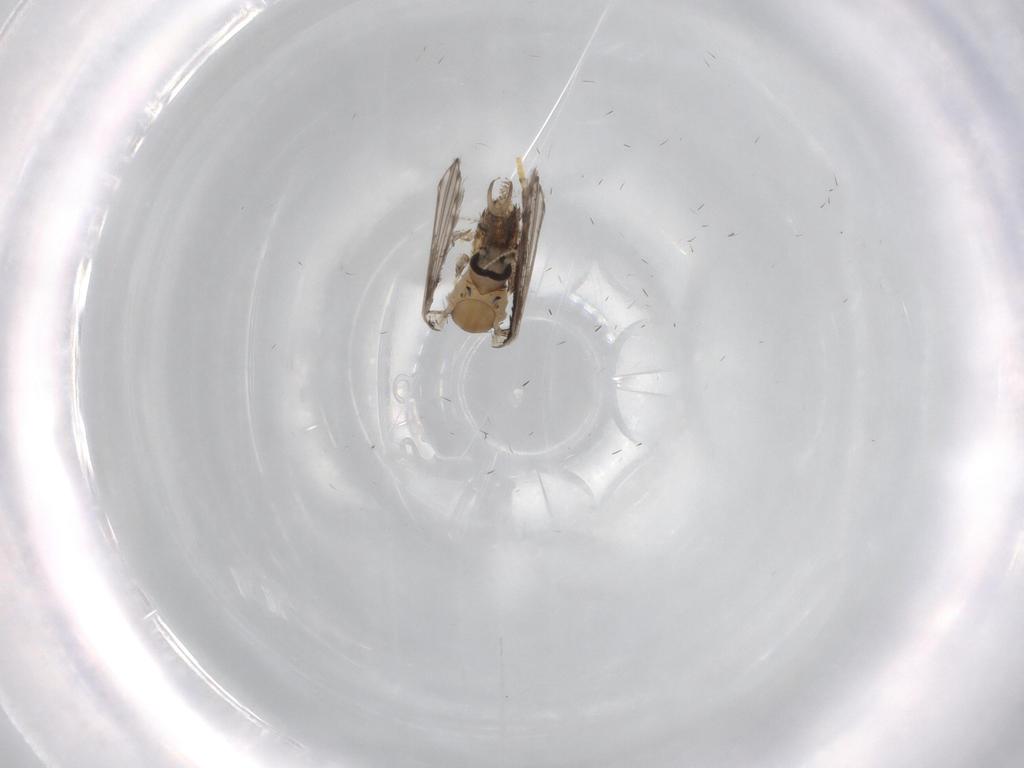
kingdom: Animalia
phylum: Arthropoda
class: Insecta
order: Diptera
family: Psychodidae
